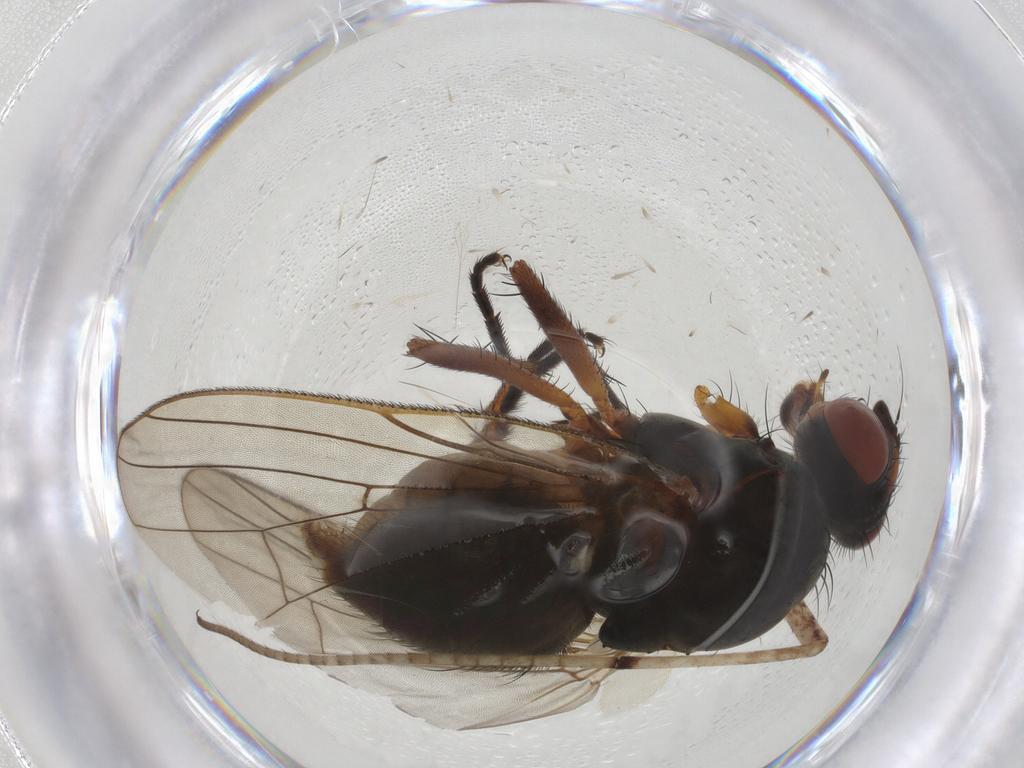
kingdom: Animalia
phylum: Arthropoda
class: Insecta
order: Diptera
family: Anthomyiidae
